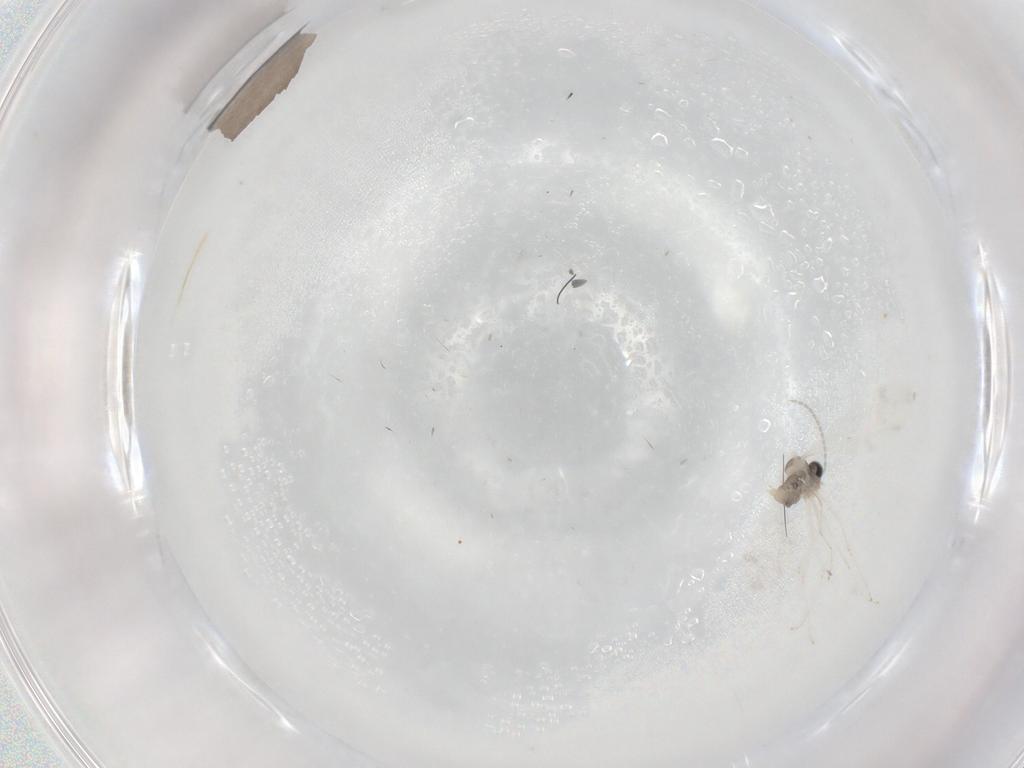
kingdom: Animalia
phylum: Arthropoda
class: Insecta
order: Diptera
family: Cecidomyiidae
